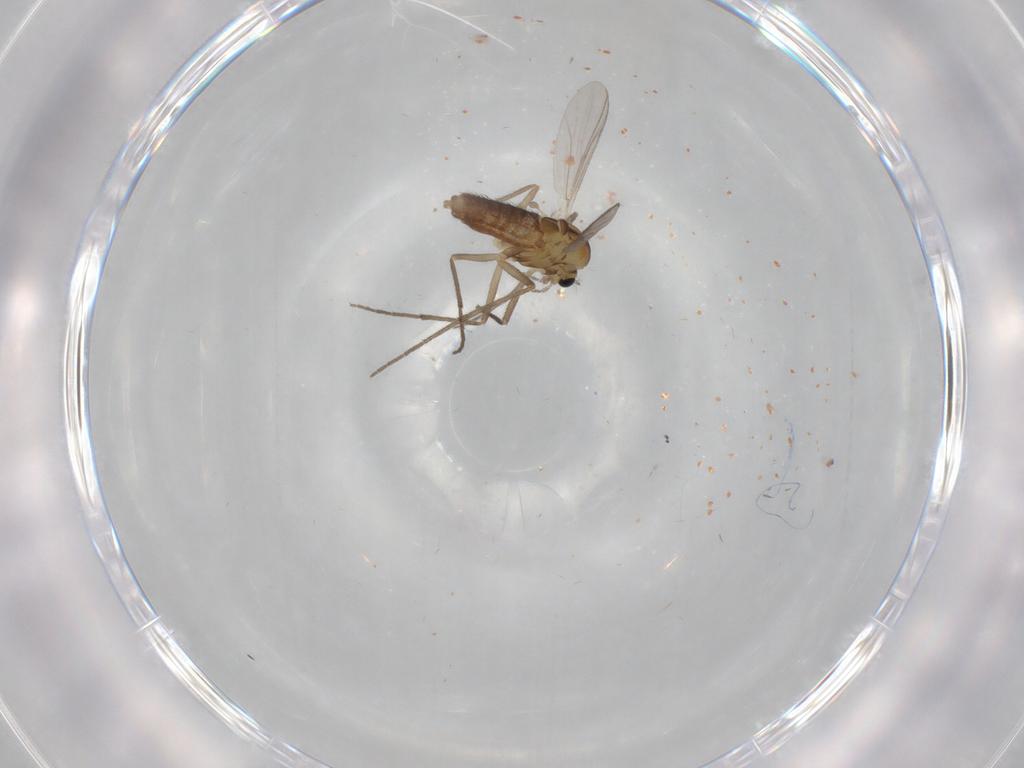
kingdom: Animalia
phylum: Arthropoda
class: Insecta
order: Diptera
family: Chironomidae
